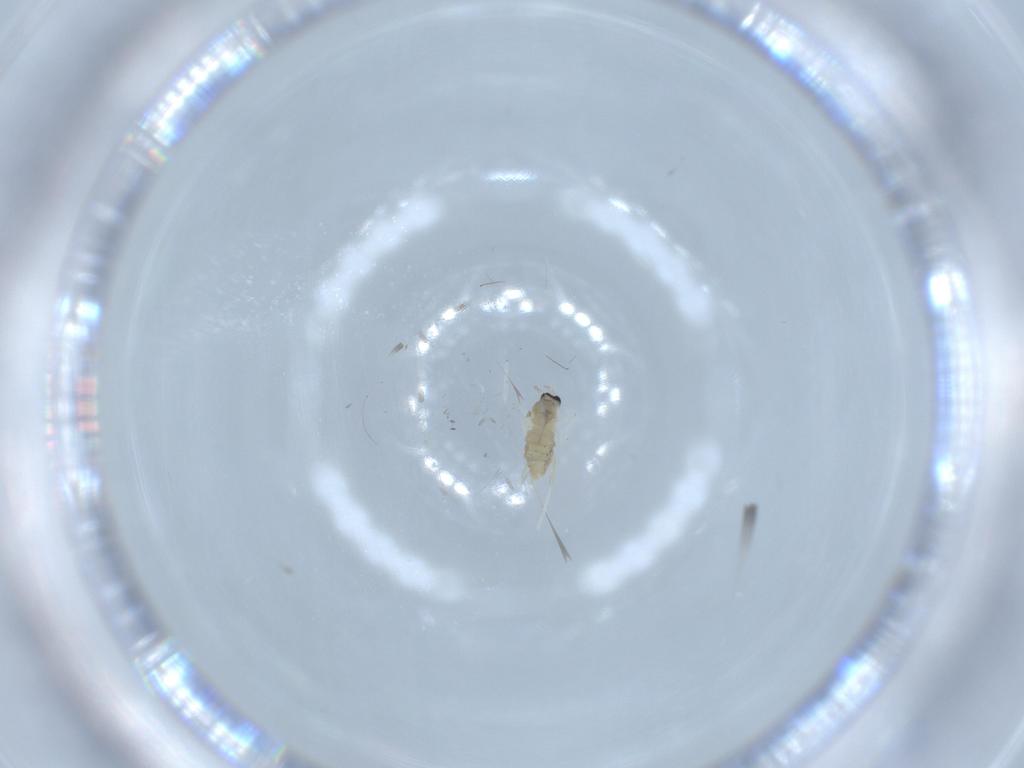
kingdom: Animalia
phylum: Arthropoda
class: Insecta
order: Diptera
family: Cecidomyiidae
